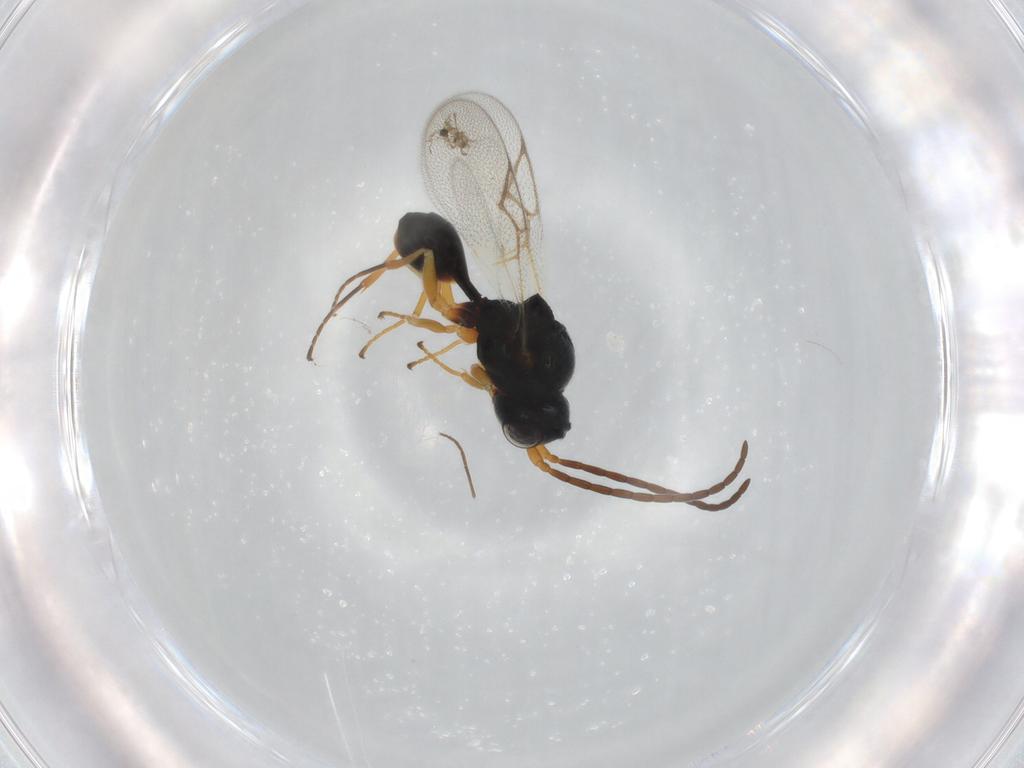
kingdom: Animalia
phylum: Arthropoda
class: Insecta
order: Hymenoptera
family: Figitidae
